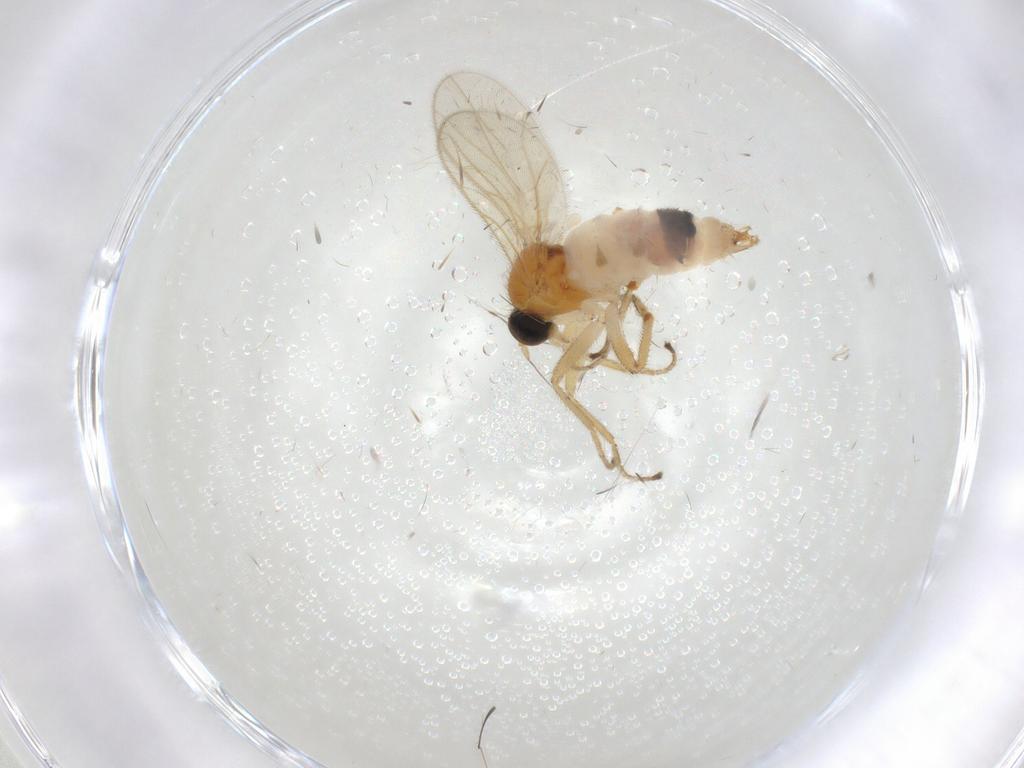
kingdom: Animalia
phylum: Arthropoda
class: Insecta
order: Diptera
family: Hybotidae
